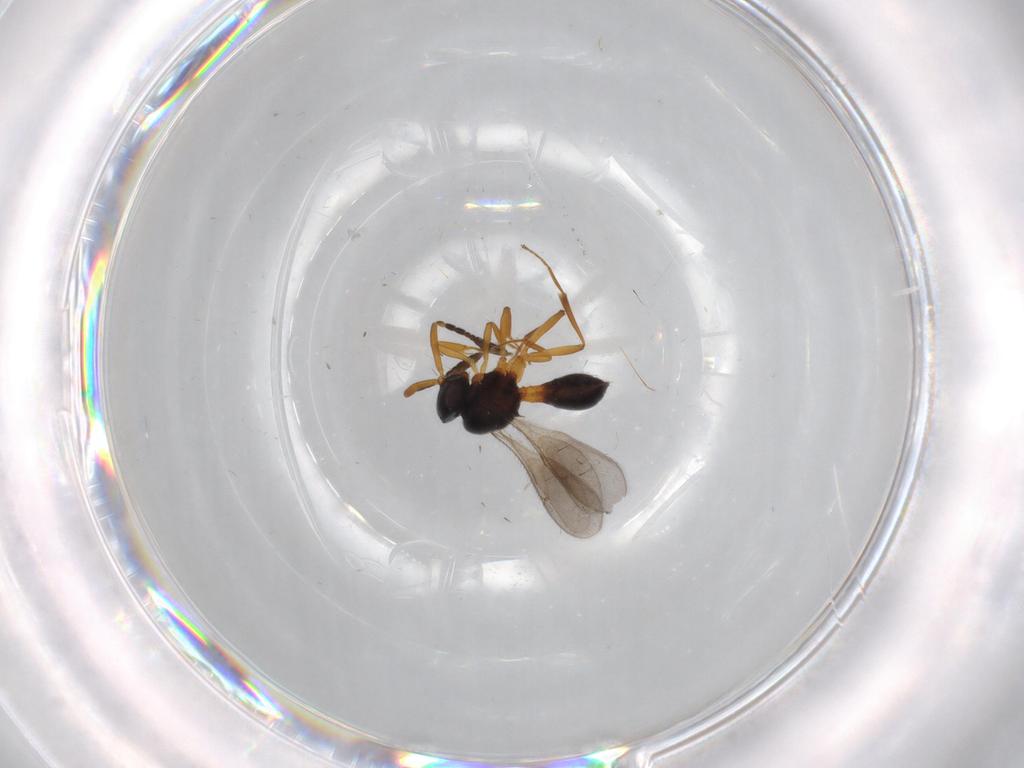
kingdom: Animalia
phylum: Arthropoda
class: Insecta
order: Hymenoptera
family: Scelionidae
